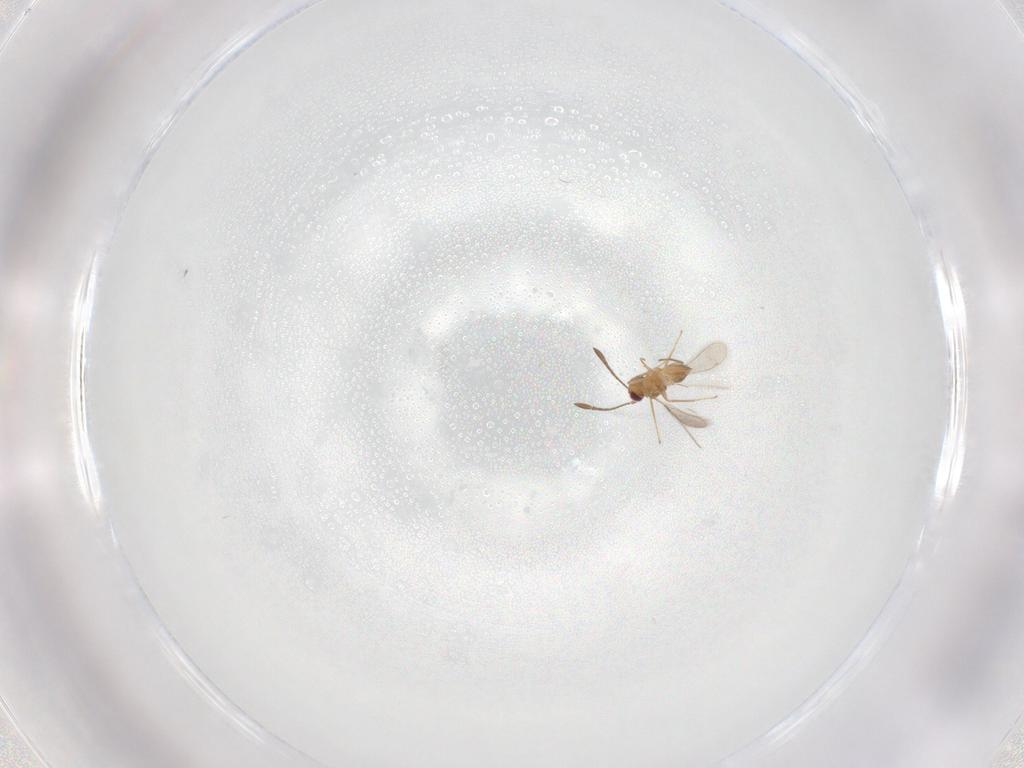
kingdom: Animalia
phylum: Arthropoda
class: Insecta
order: Hymenoptera
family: Mymaridae
